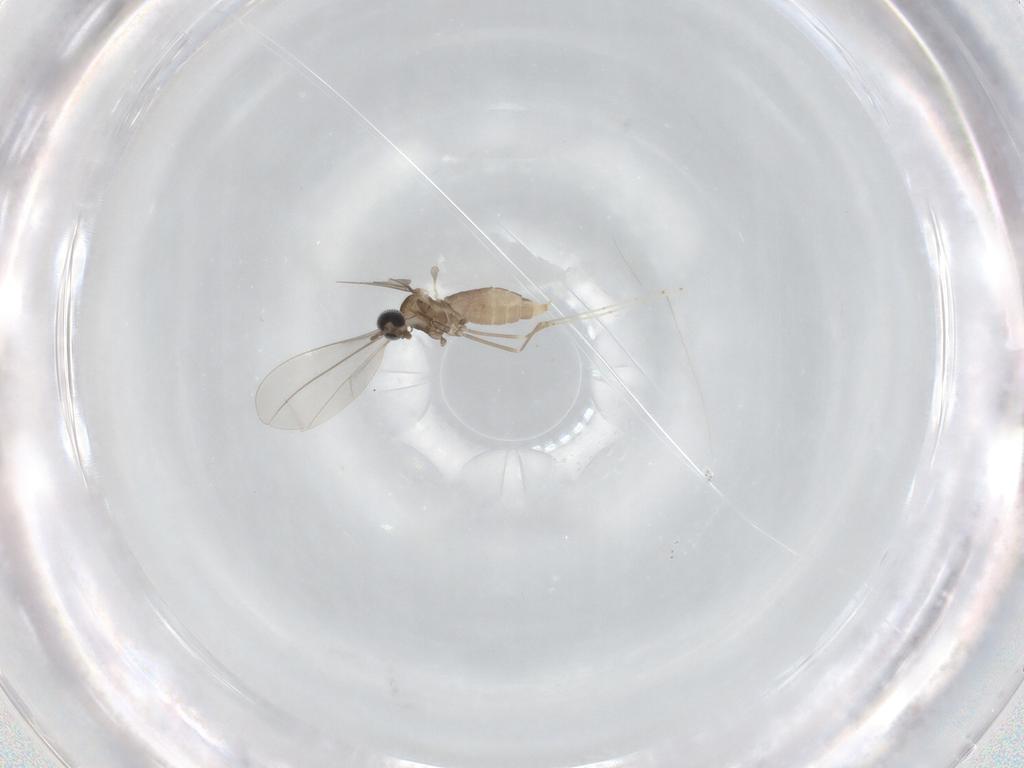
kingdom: Animalia
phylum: Arthropoda
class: Insecta
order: Diptera
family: Cecidomyiidae
